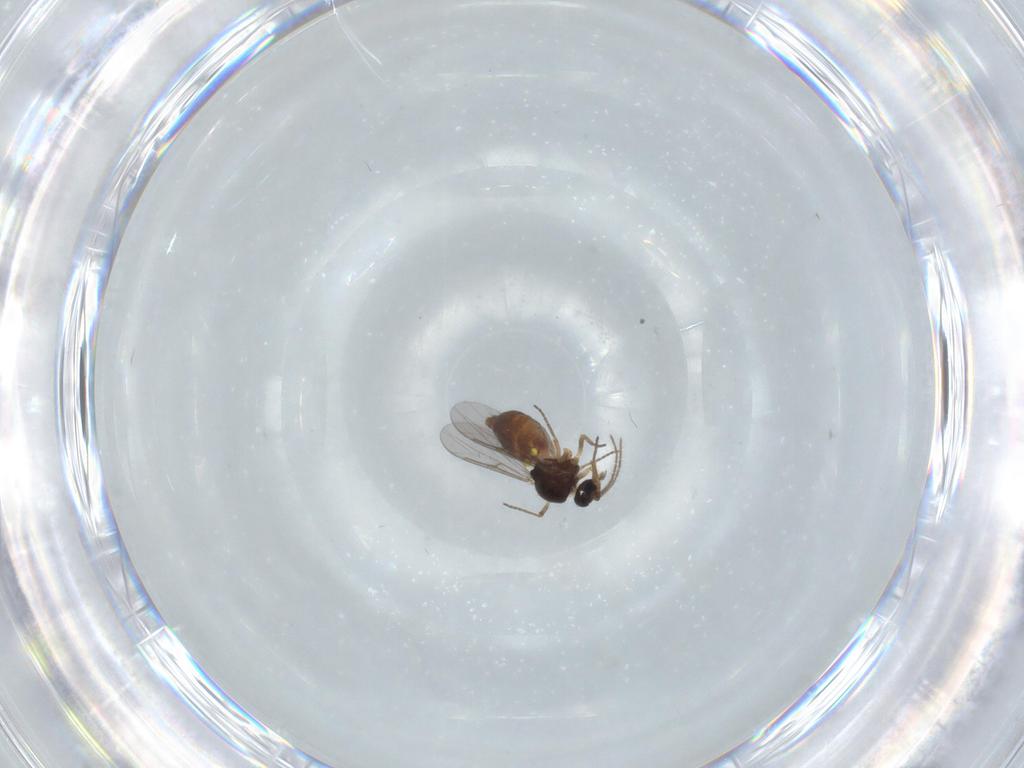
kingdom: Animalia
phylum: Arthropoda
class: Insecta
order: Diptera
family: Ceratopogonidae
